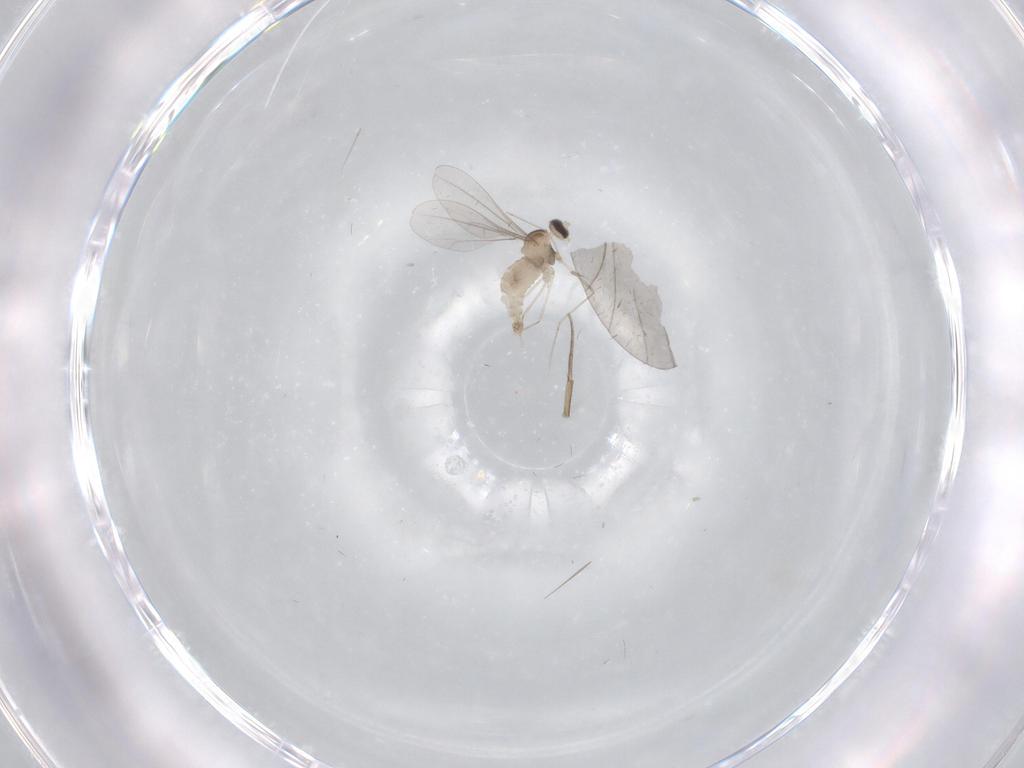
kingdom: Animalia
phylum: Arthropoda
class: Insecta
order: Diptera
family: Cecidomyiidae
